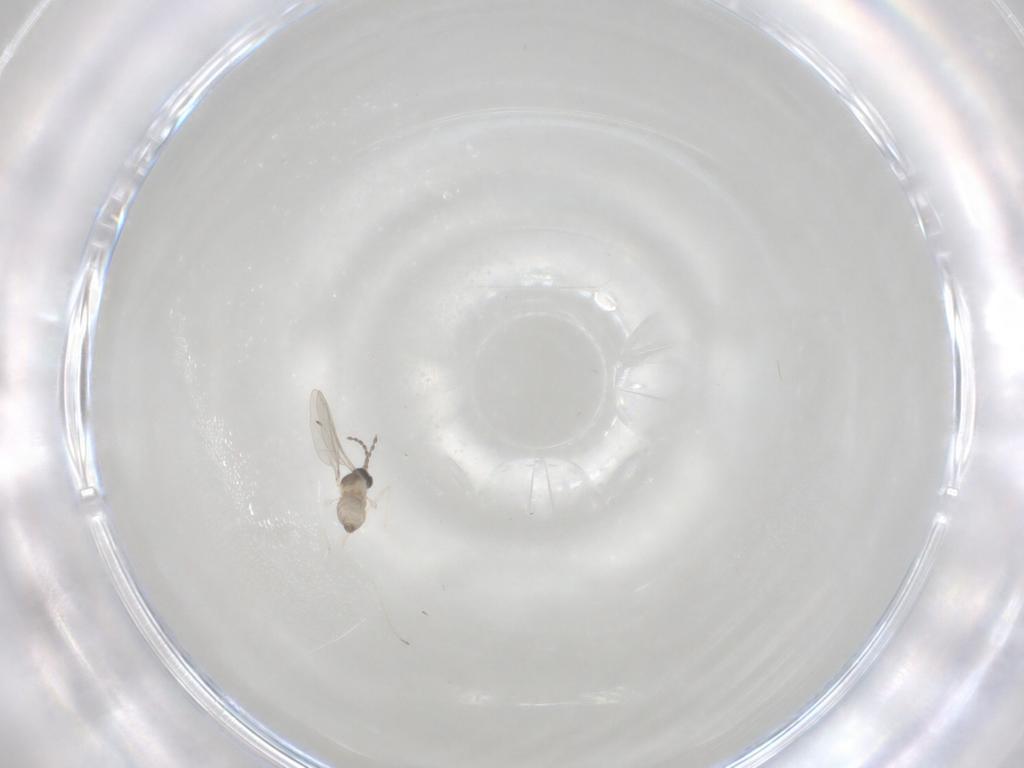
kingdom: Animalia
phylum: Arthropoda
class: Insecta
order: Diptera
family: Cecidomyiidae
